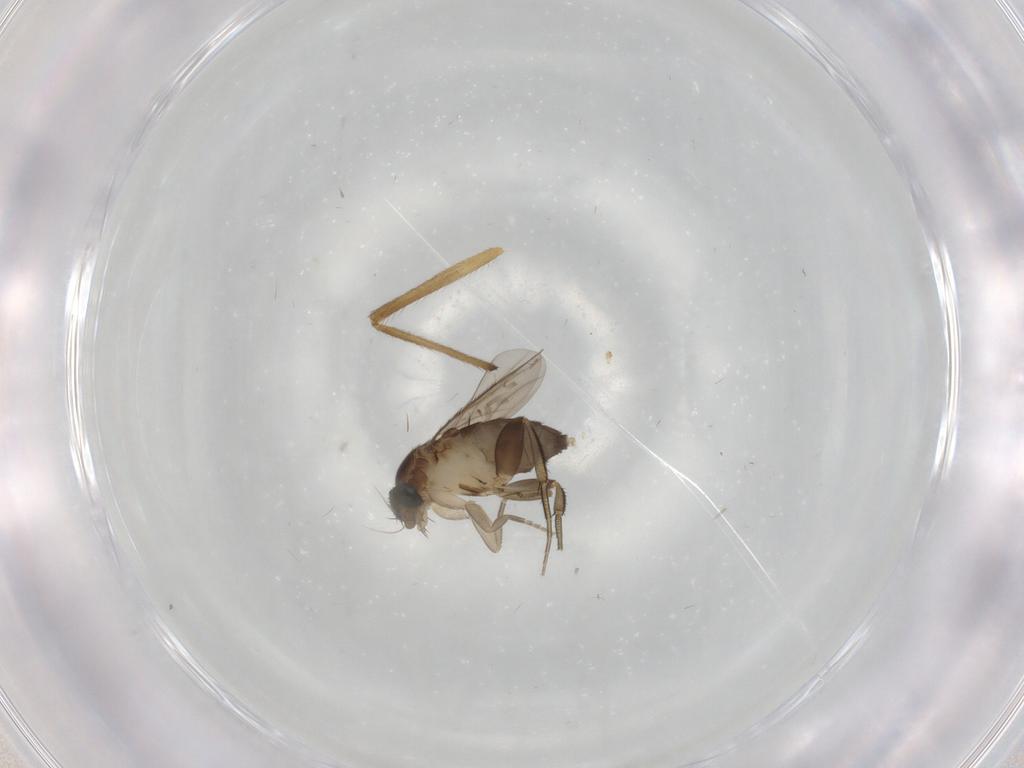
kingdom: Animalia
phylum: Arthropoda
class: Insecta
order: Diptera
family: Phoridae
